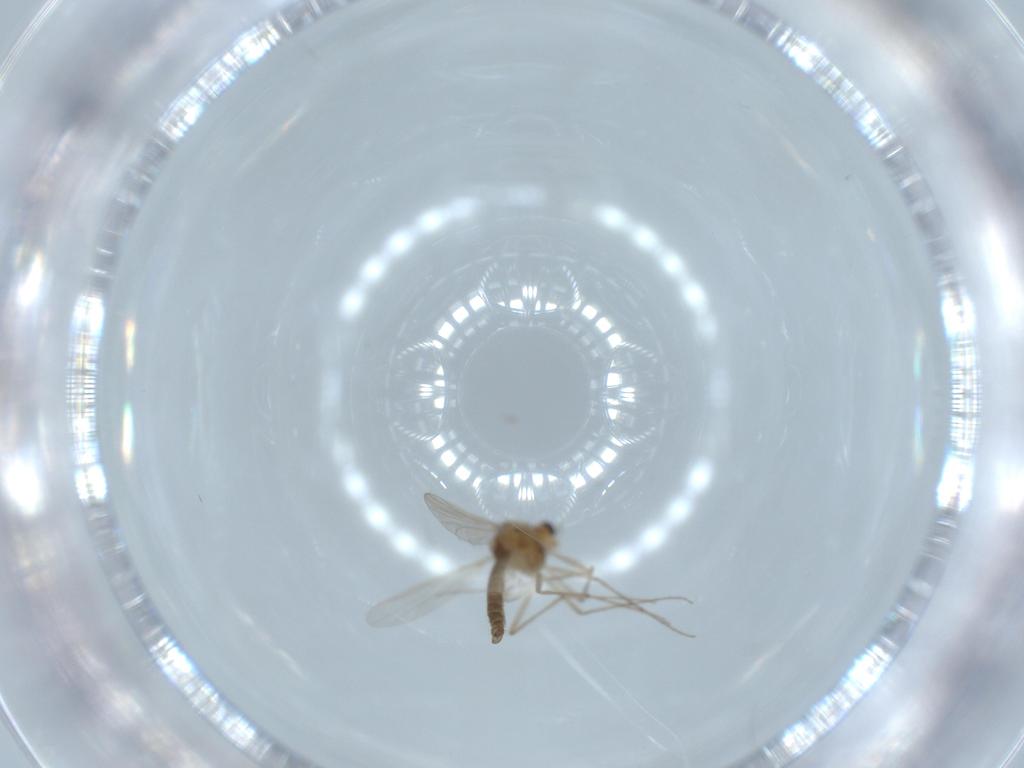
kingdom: Animalia
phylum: Arthropoda
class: Insecta
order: Diptera
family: Chironomidae
